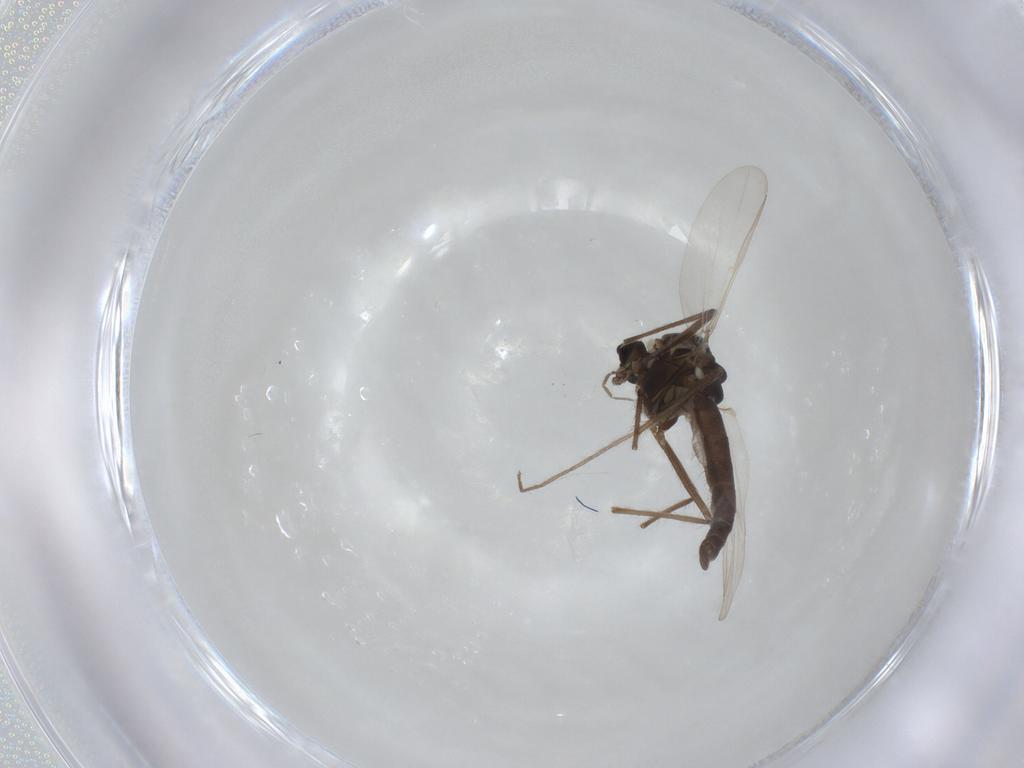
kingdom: Animalia
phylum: Arthropoda
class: Insecta
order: Diptera
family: Chironomidae
